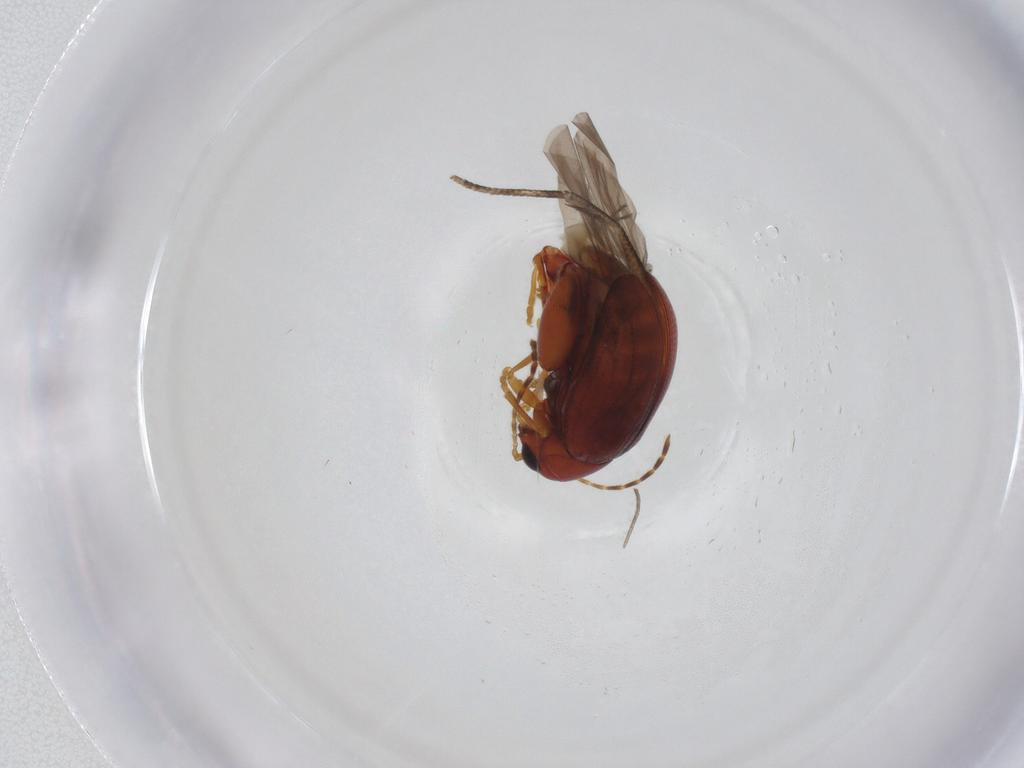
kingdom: Animalia
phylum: Arthropoda
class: Insecta
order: Coleoptera
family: Chrysomelidae
